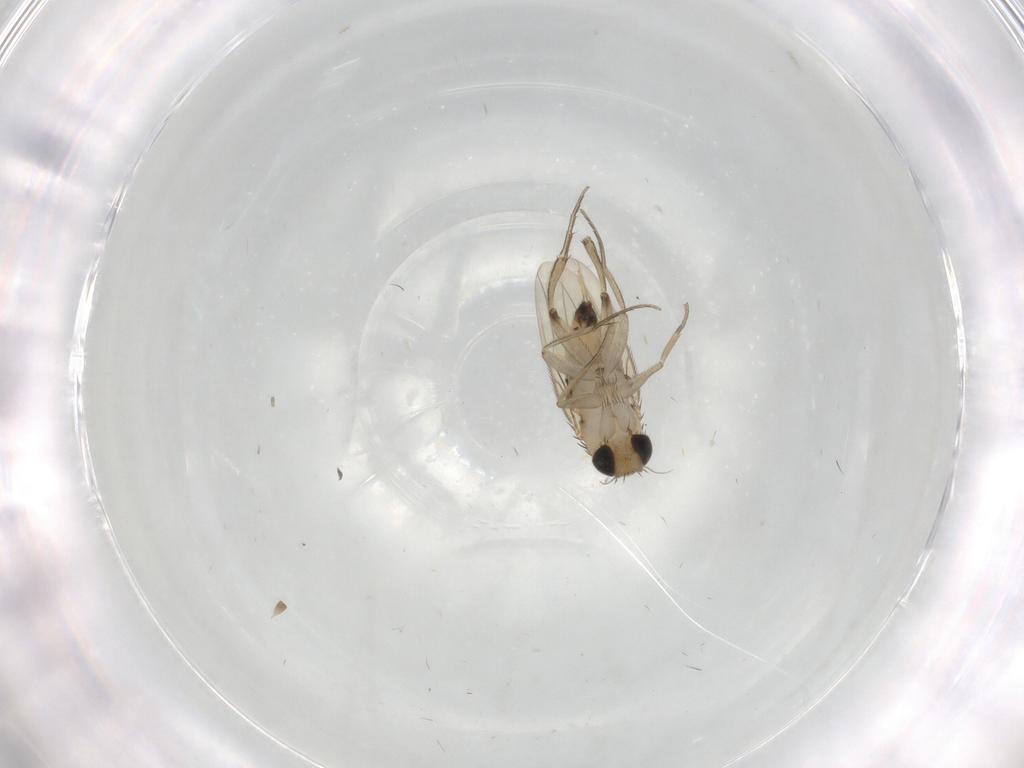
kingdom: Animalia
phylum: Arthropoda
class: Insecta
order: Diptera
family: Phoridae
